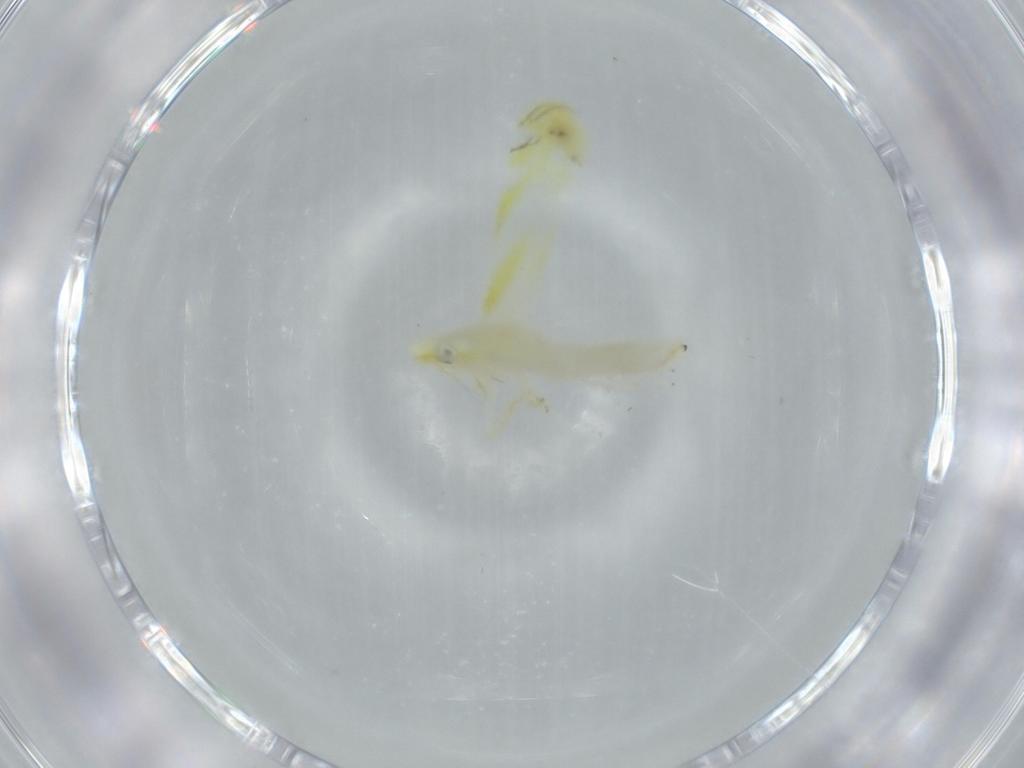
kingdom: Animalia
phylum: Arthropoda
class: Insecta
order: Hemiptera
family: Cicadellidae
